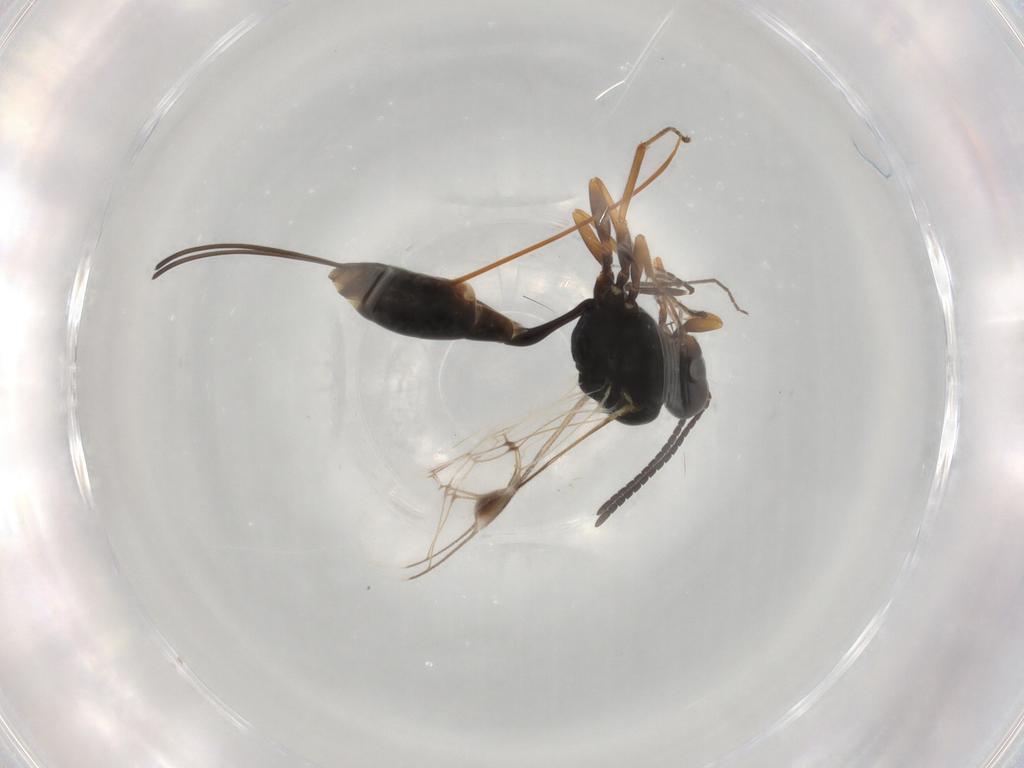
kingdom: Animalia
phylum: Arthropoda
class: Insecta
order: Hymenoptera
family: Ichneumonidae
